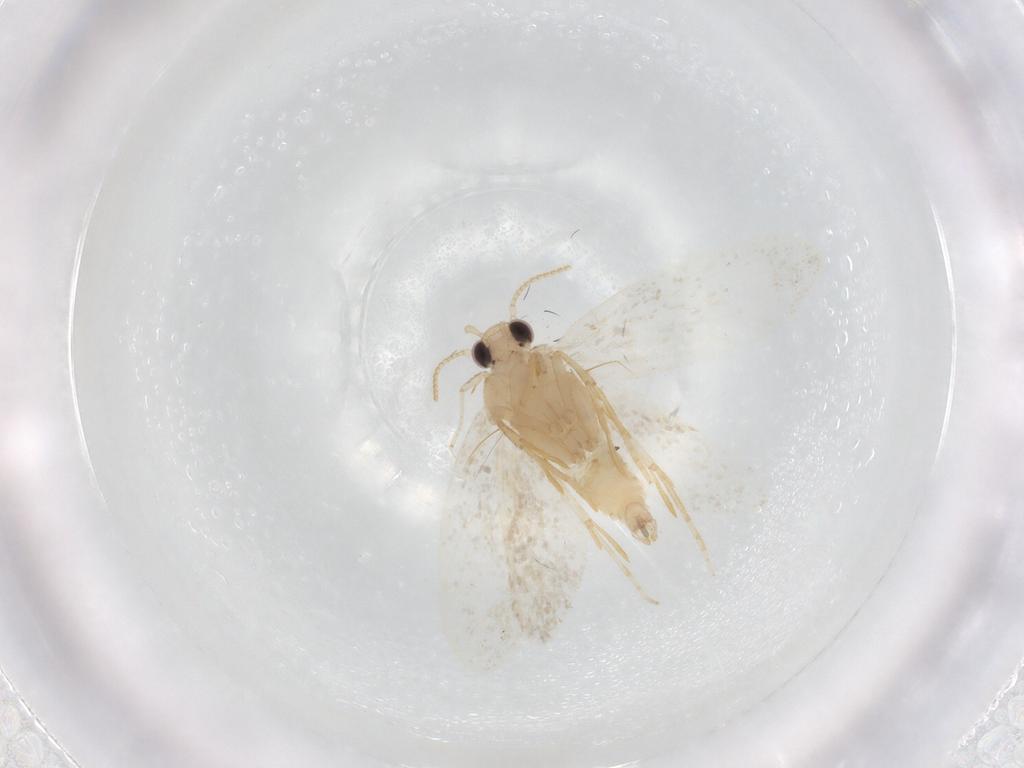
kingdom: Animalia
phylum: Arthropoda
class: Insecta
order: Lepidoptera
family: Psychidae
